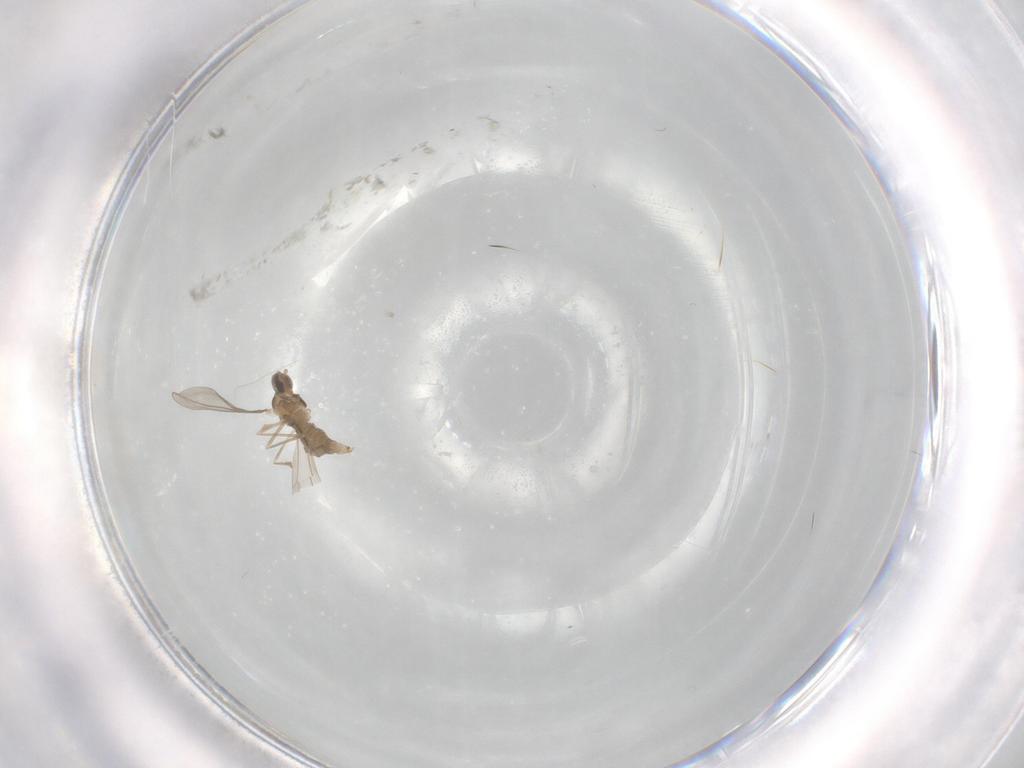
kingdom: Animalia
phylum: Arthropoda
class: Insecta
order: Diptera
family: Cecidomyiidae
